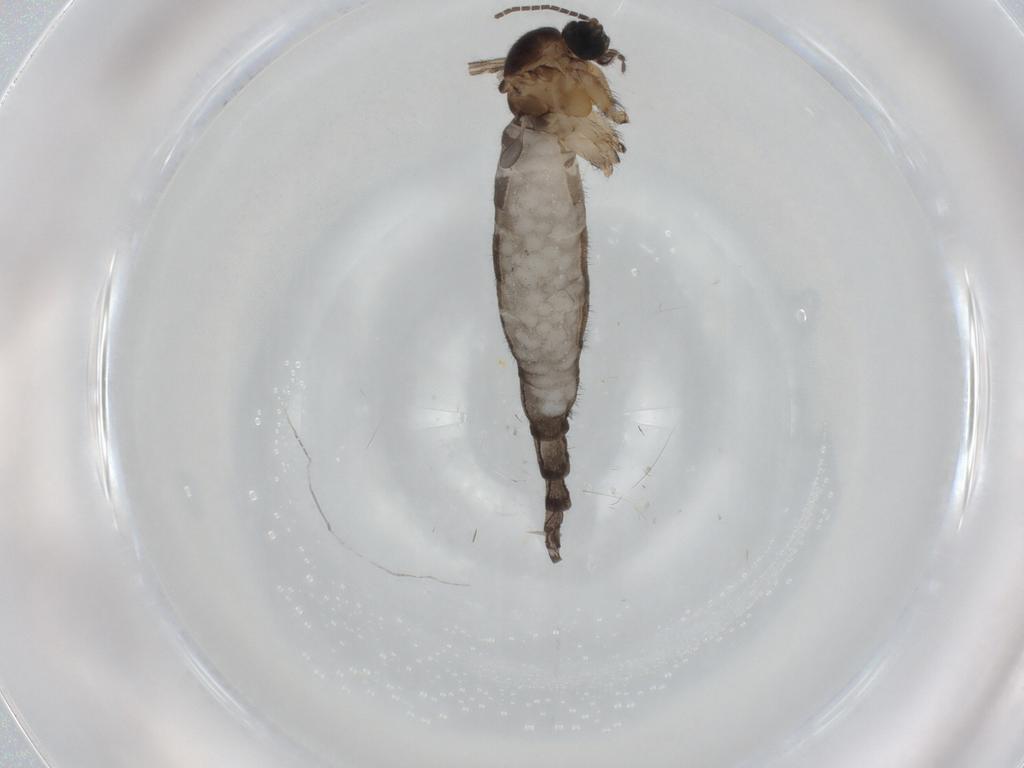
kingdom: Animalia
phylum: Arthropoda
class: Insecta
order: Diptera
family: Sciaridae
